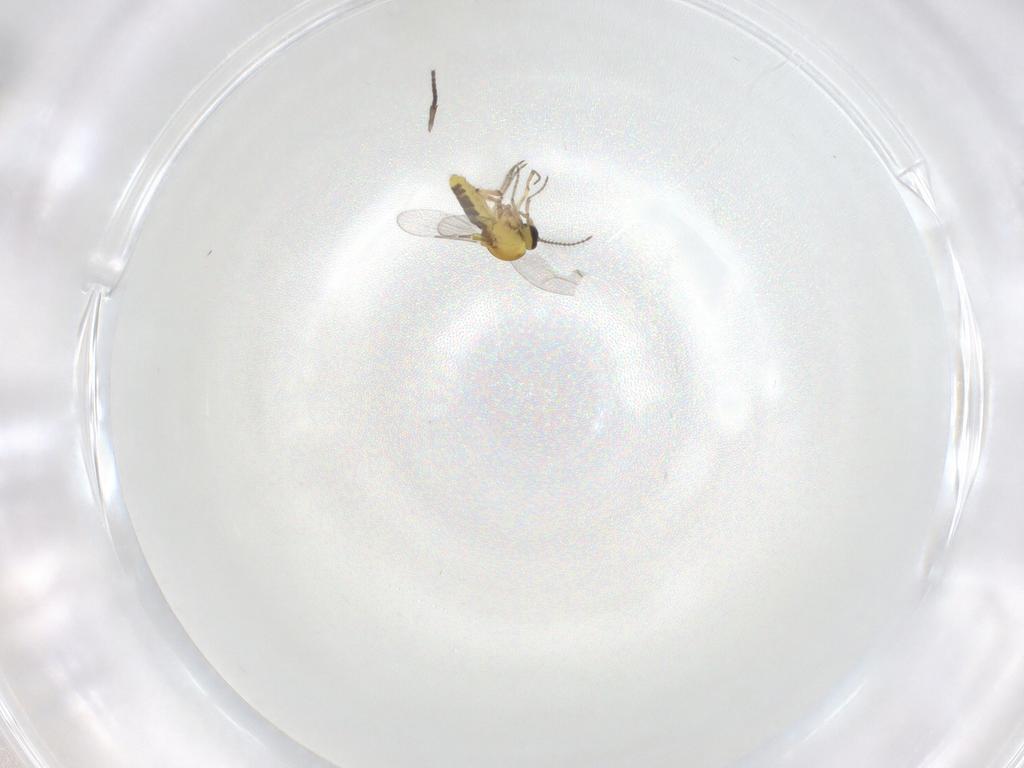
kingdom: Animalia
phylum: Arthropoda
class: Insecta
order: Diptera
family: Sciaridae
